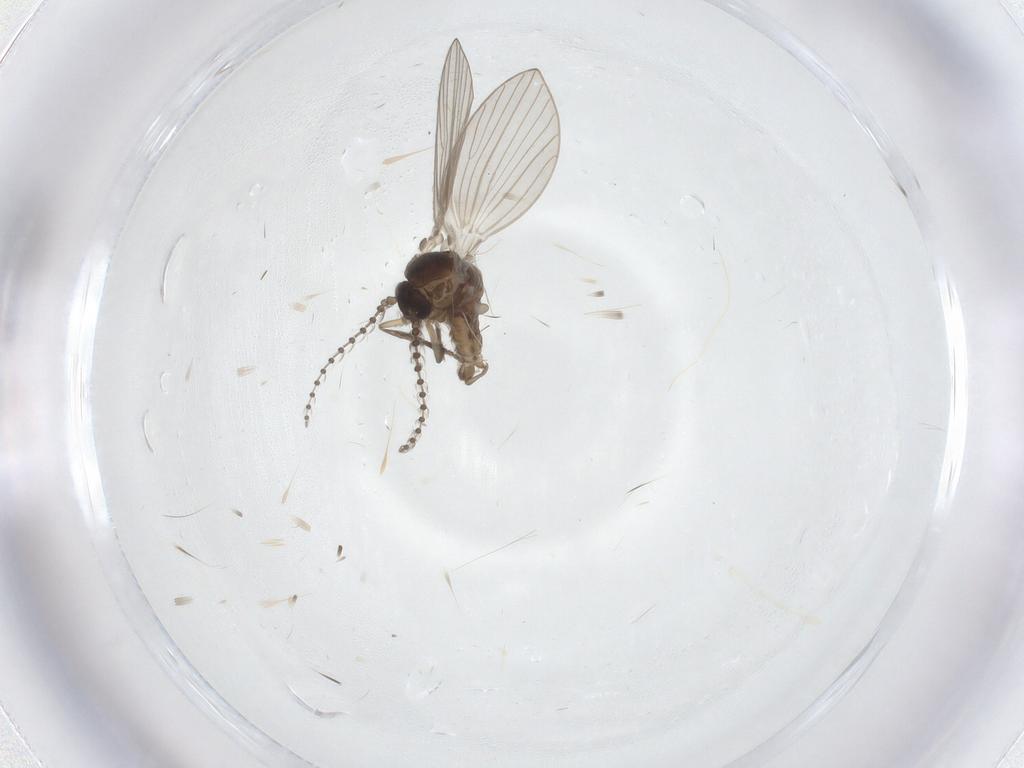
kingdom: Animalia
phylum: Arthropoda
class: Insecta
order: Diptera
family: Psychodidae
